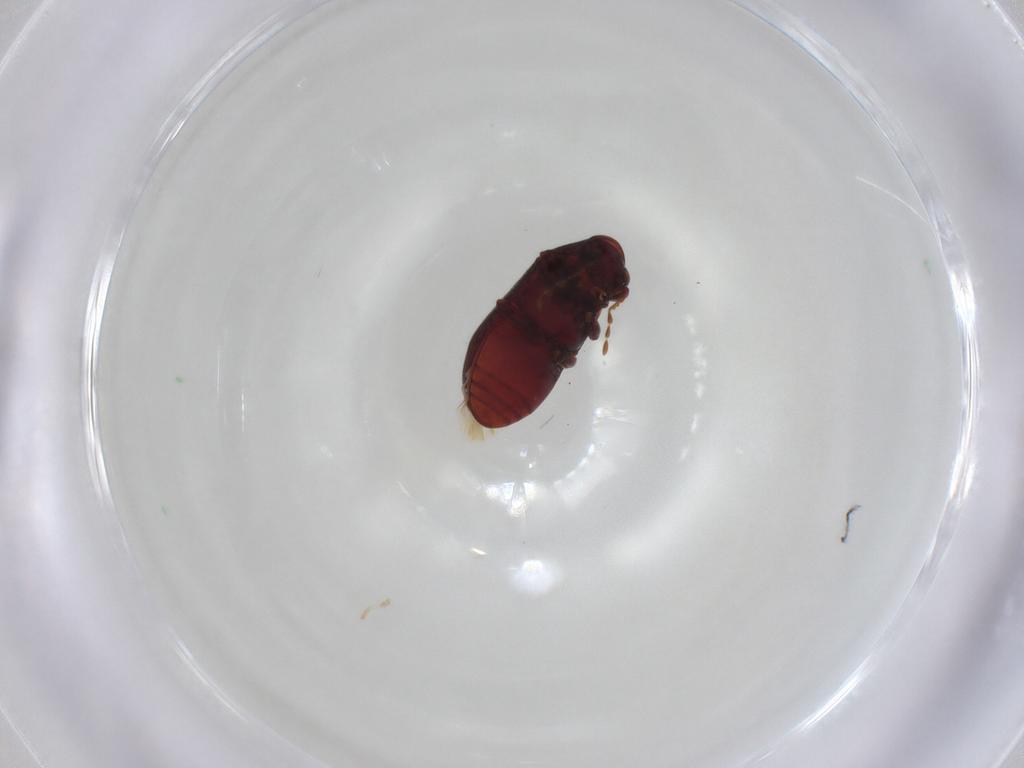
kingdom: Animalia
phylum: Arthropoda
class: Insecta
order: Coleoptera
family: Ptinidae
